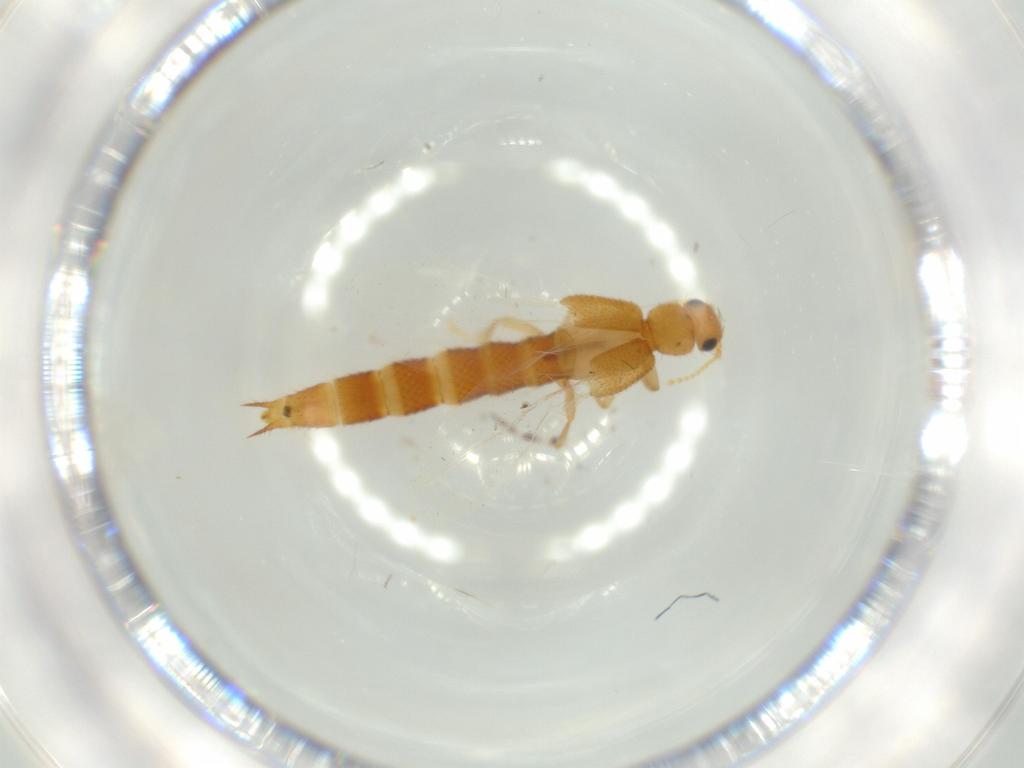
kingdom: Animalia
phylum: Arthropoda
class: Insecta
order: Coleoptera
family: Staphylinidae
